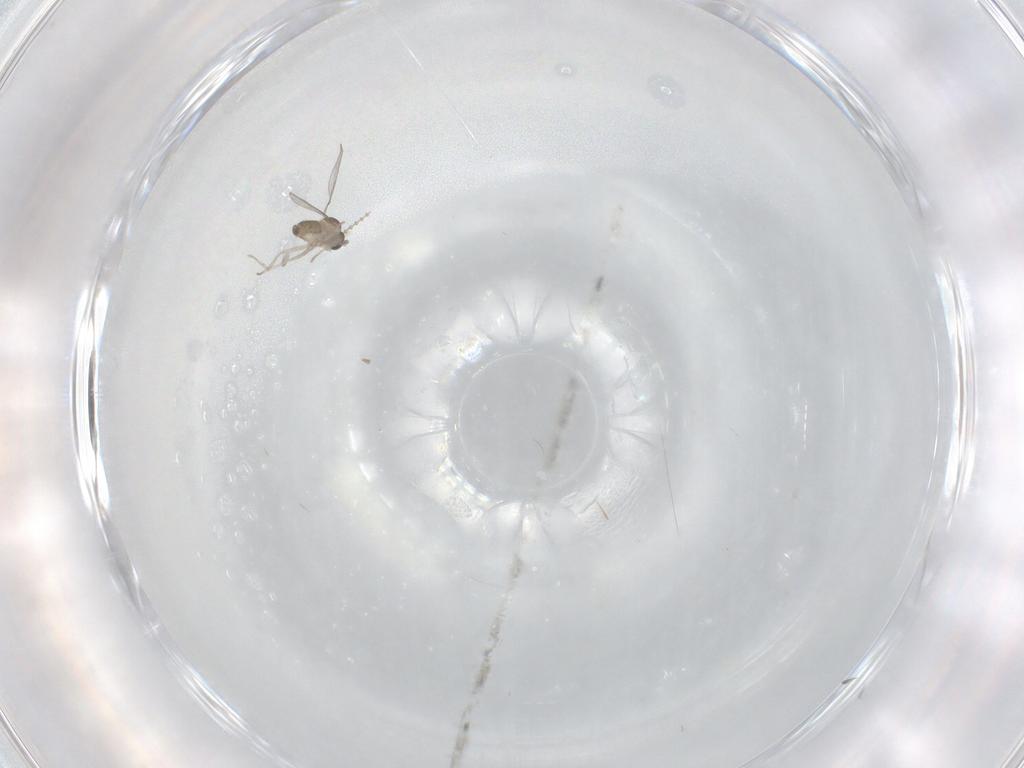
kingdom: Animalia
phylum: Arthropoda
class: Insecta
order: Diptera
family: Cecidomyiidae
